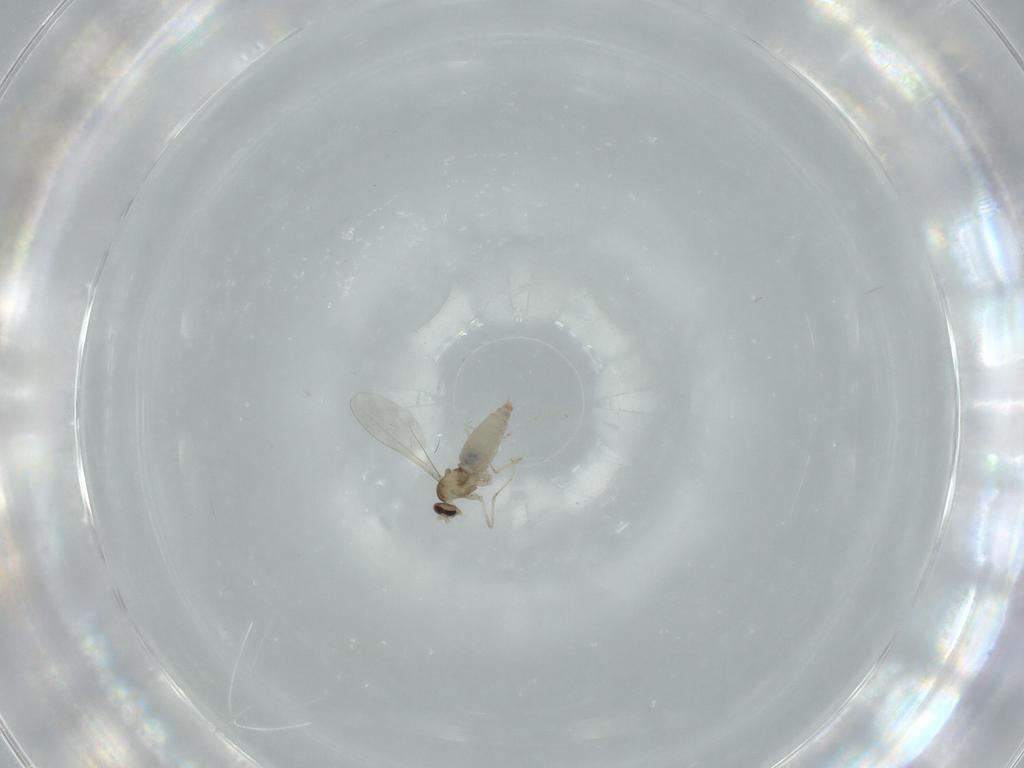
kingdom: Animalia
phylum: Arthropoda
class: Insecta
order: Diptera
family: Cecidomyiidae
